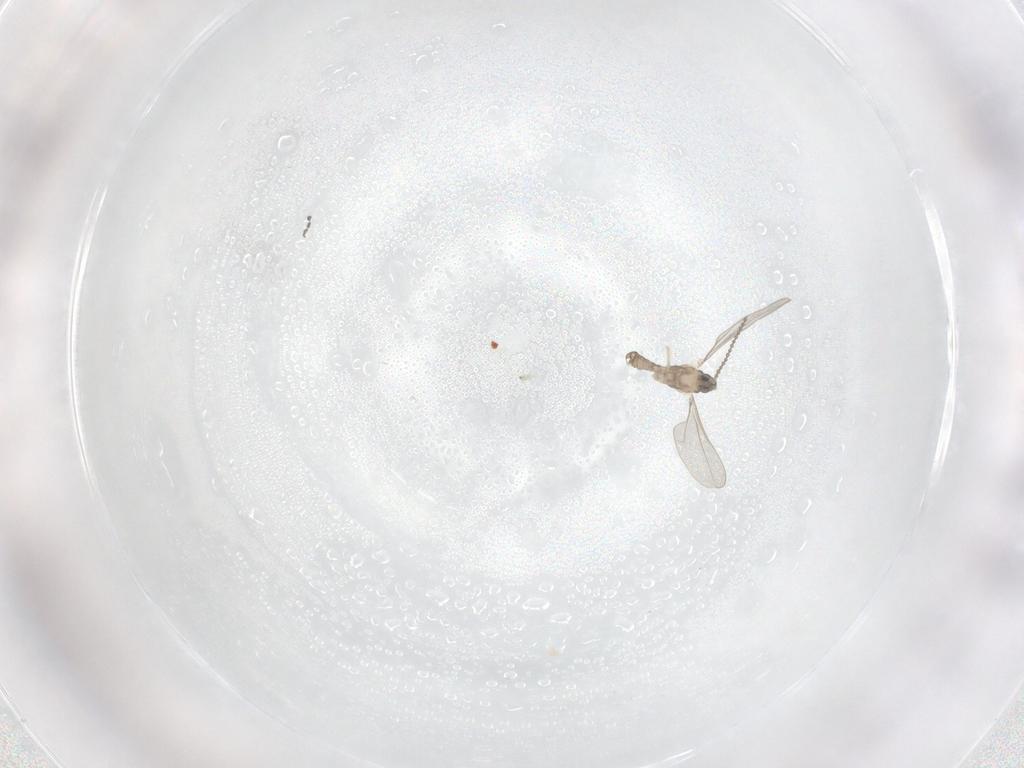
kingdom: Animalia
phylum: Arthropoda
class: Insecta
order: Diptera
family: Cecidomyiidae
